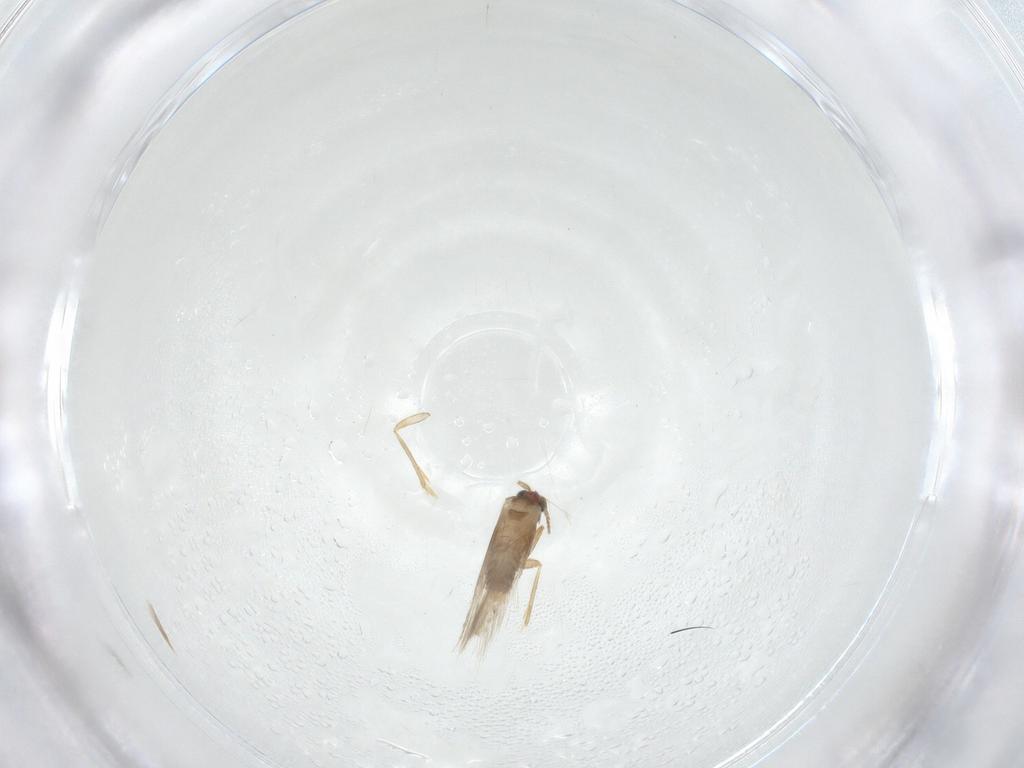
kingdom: Animalia
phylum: Arthropoda
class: Insecta
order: Lepidoptera
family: Nepticulidae
